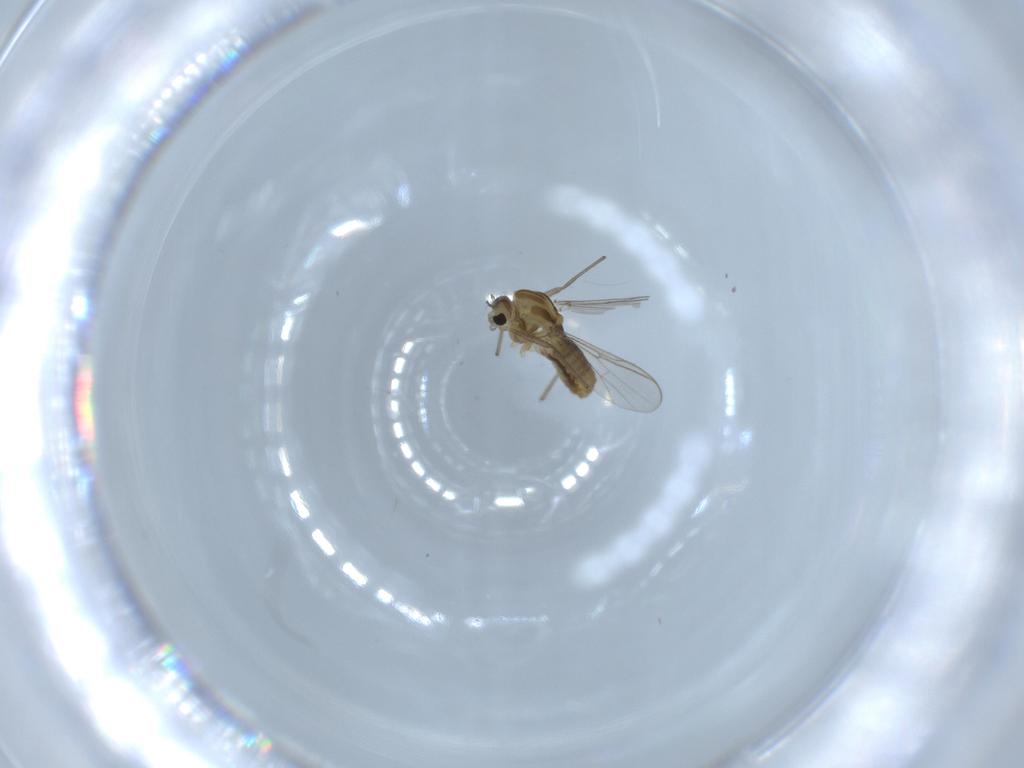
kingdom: Animalia
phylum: Arthropoda
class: Insecta
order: Diptera
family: Chironomidae
